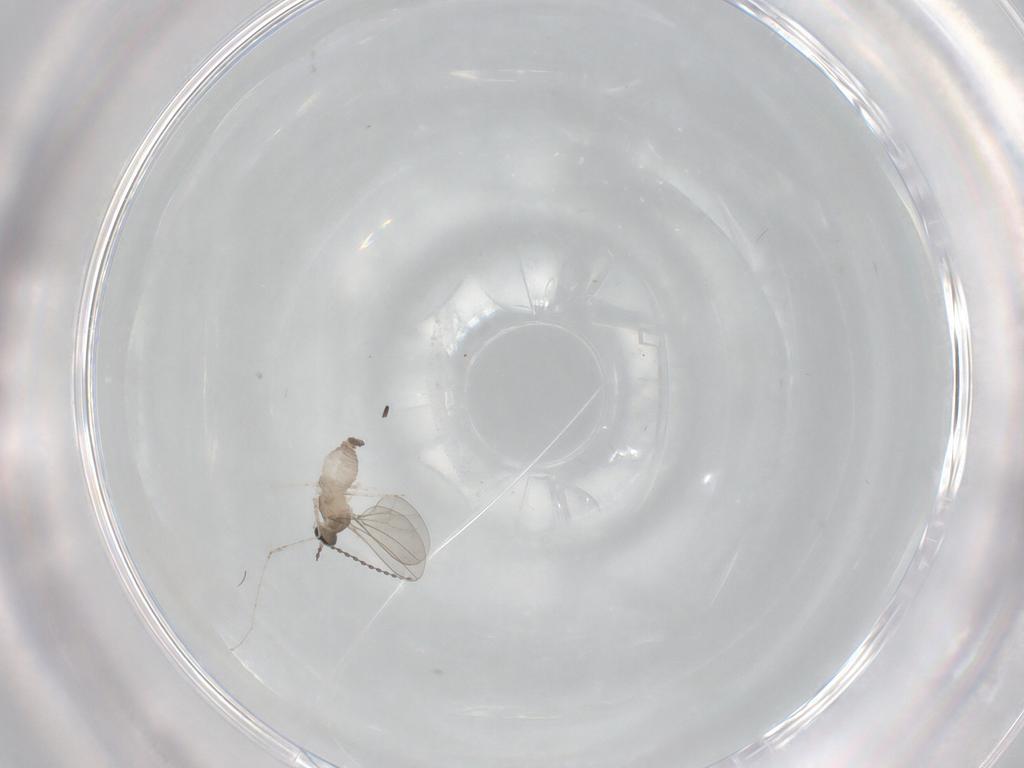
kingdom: Animalia
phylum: Arthropoda
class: Insecta
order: Diptera
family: Cecidomyiidae
